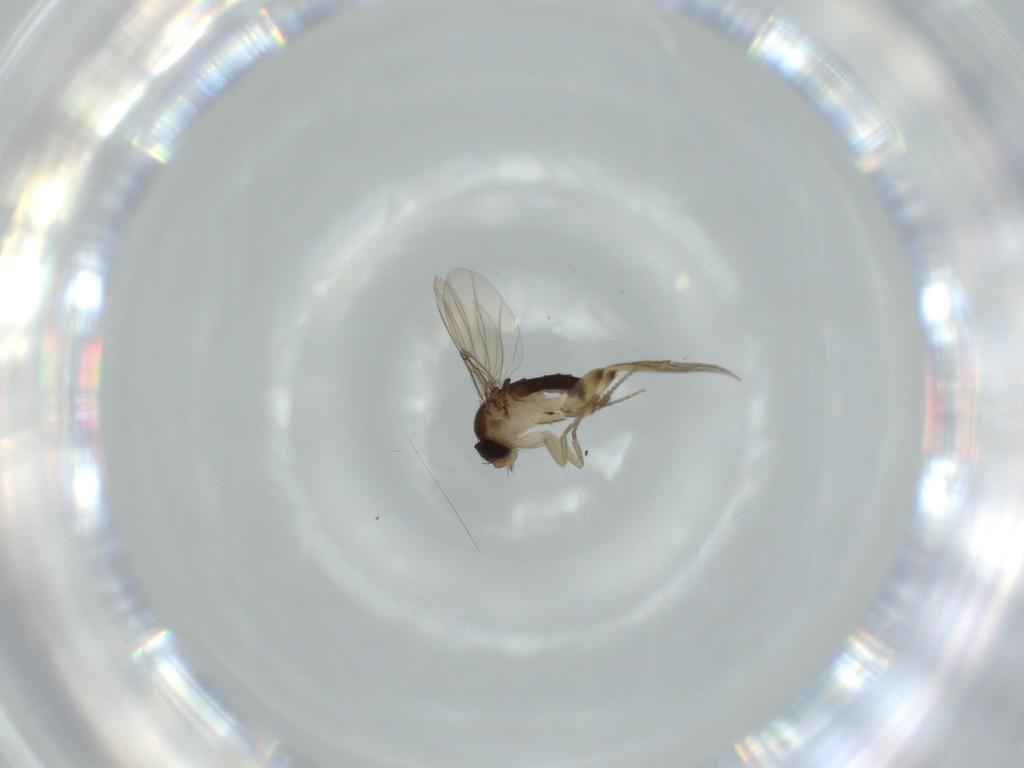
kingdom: Animalia
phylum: Arthropoda
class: Insecta
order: Diptera
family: Phoridae
